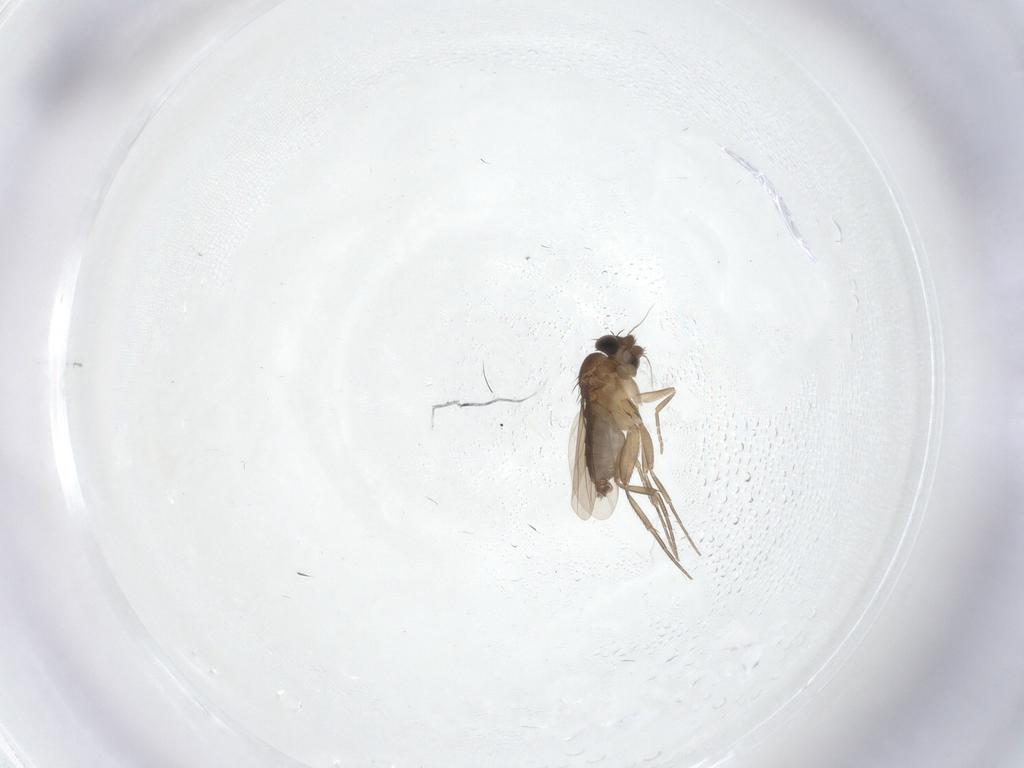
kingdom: Animalia
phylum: Arthropoda
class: Insecta
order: Diptera
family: Phoridae
